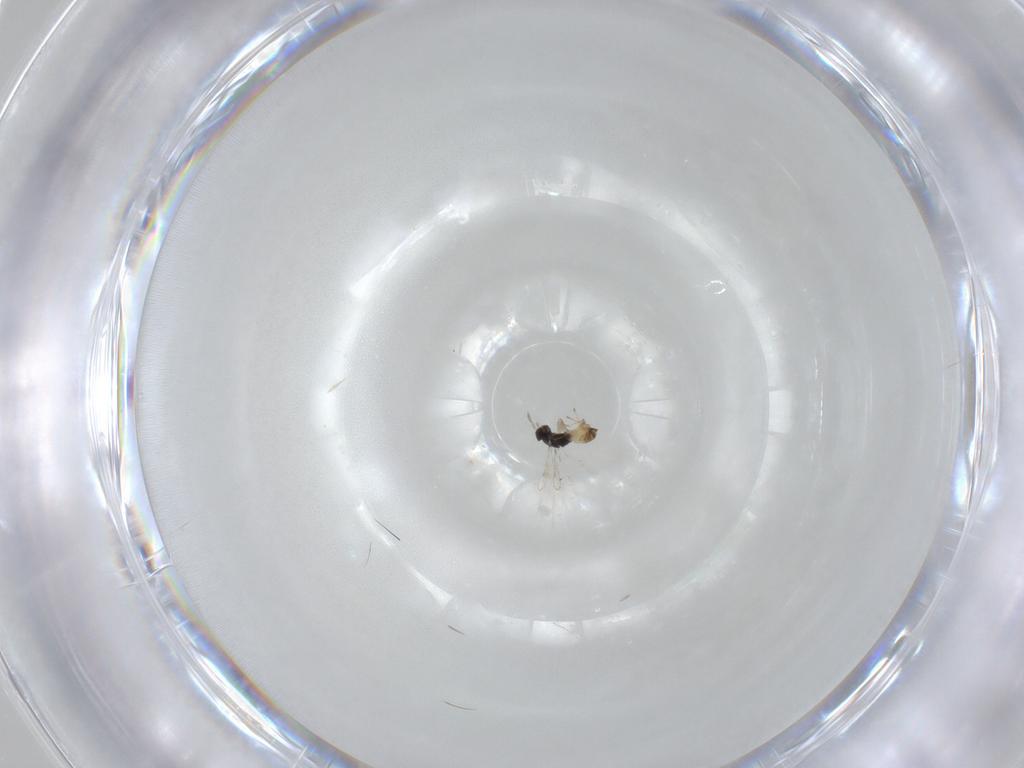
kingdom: Animalia
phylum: Arthropoda
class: Insecta
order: Hymenoptera
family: Eulophidae
